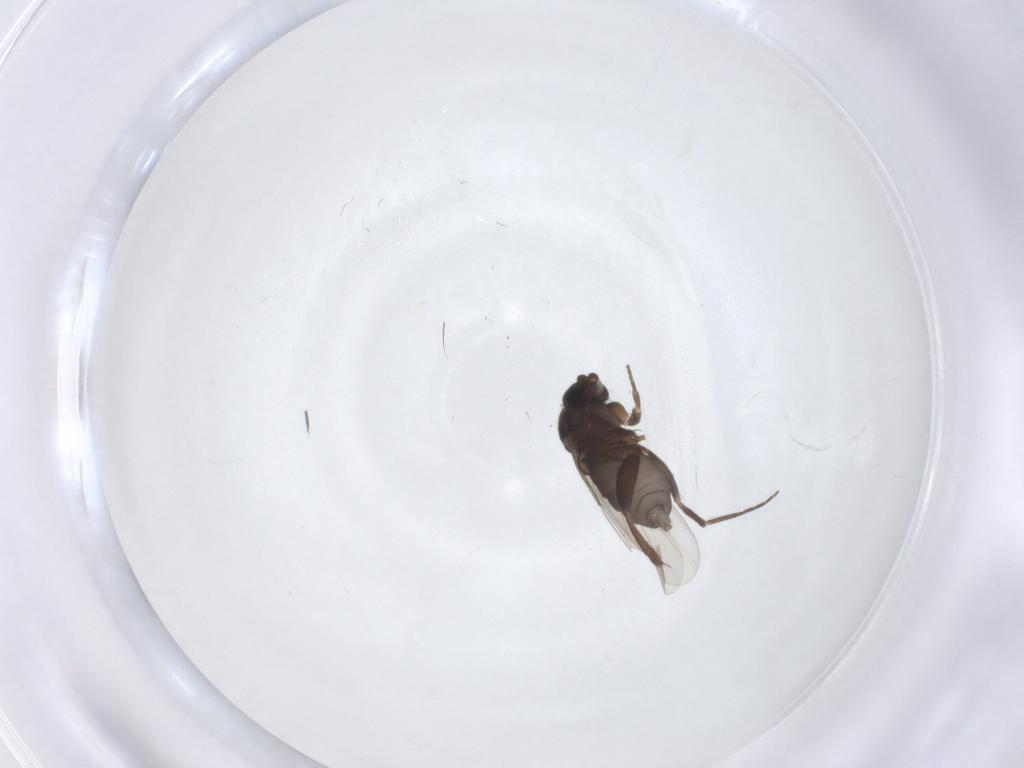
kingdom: Animalia
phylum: Arthropoda
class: Insecta
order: Diptera
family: Phoridae
